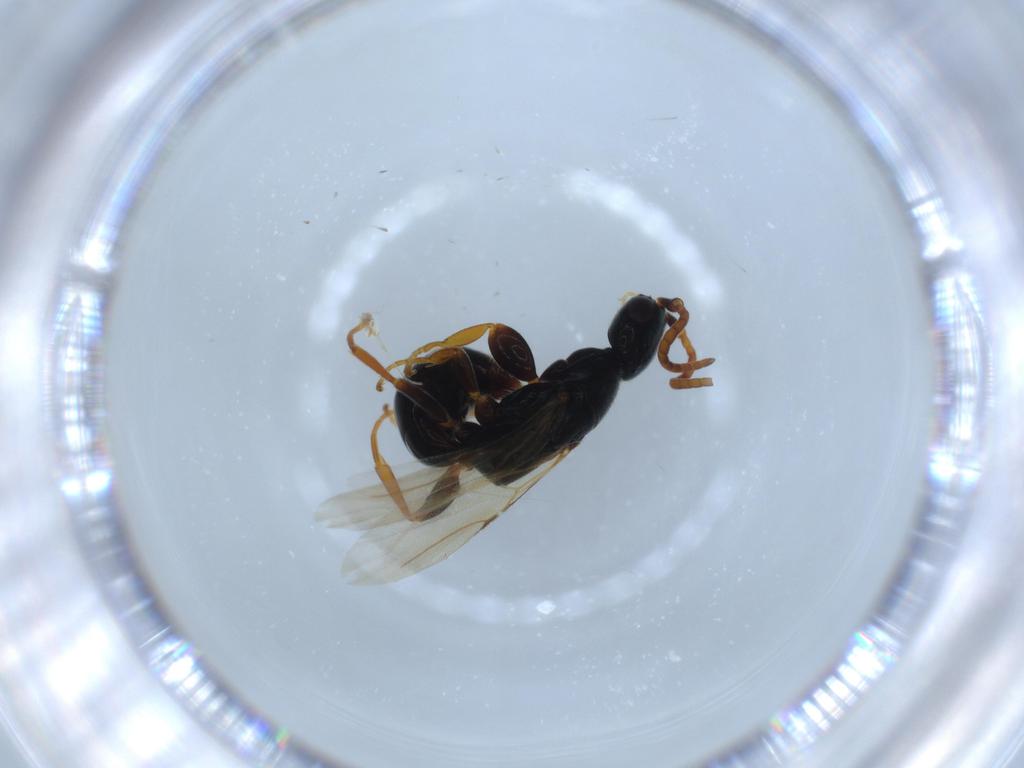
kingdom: Animalia
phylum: Arthropoda
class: Insecta
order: Hymenoptera
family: Bethylidae
